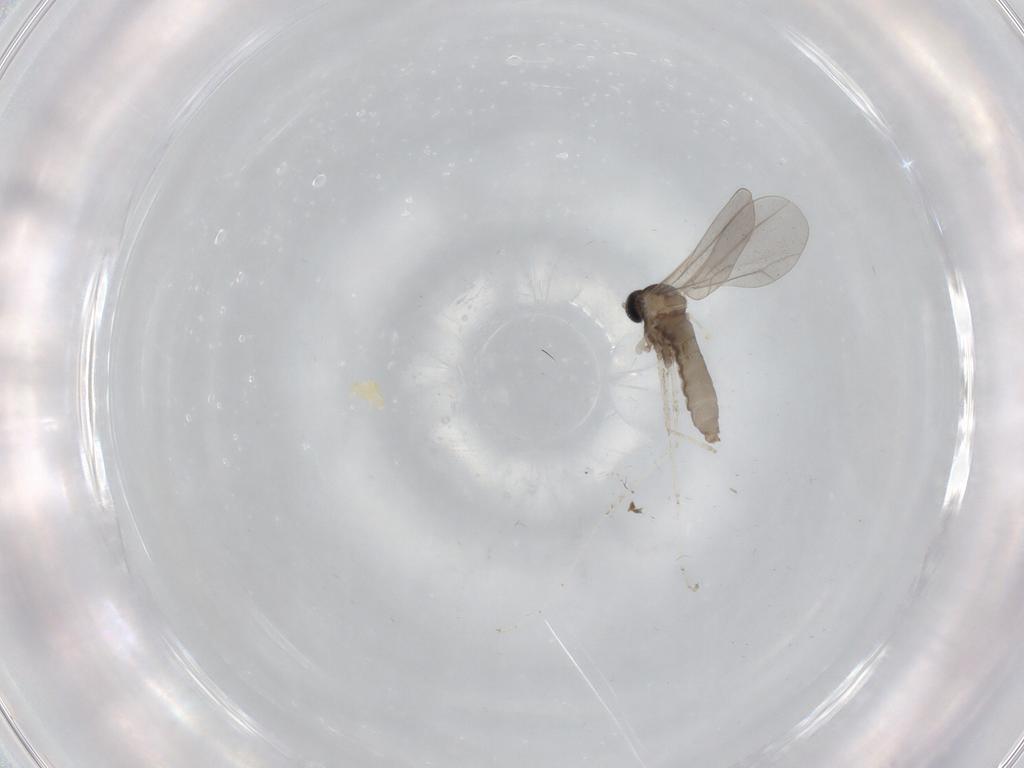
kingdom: Animalia
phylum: Arthropoda
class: Insecta
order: Diptera
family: Cecidomyiidae
